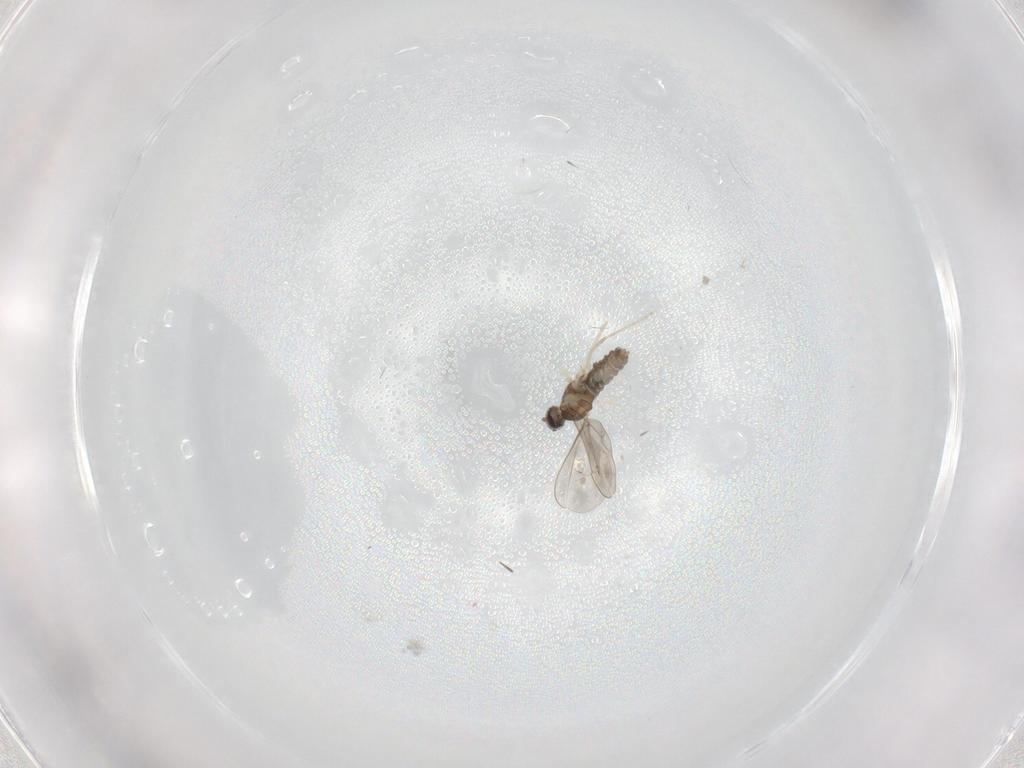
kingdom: Animalia
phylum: Arthropoda
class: Insecta
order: Diptera
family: Cecidomyiidae
